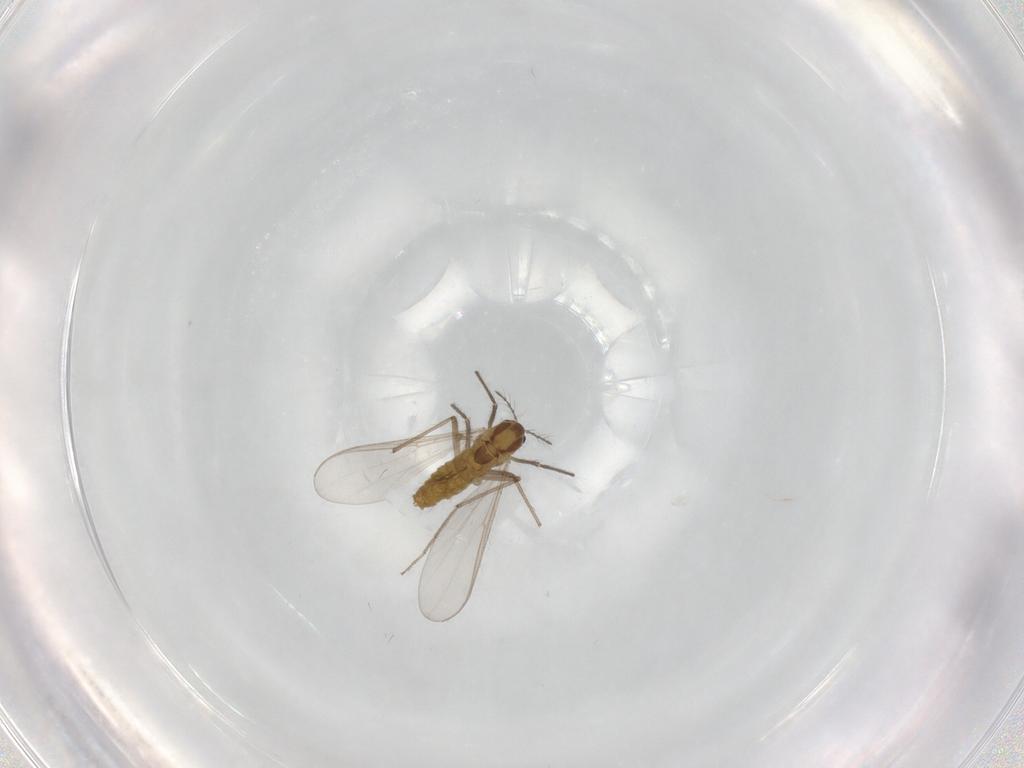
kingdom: Animalia
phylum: Arthropoda
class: Insecta
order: Diptera
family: Chironomidae
